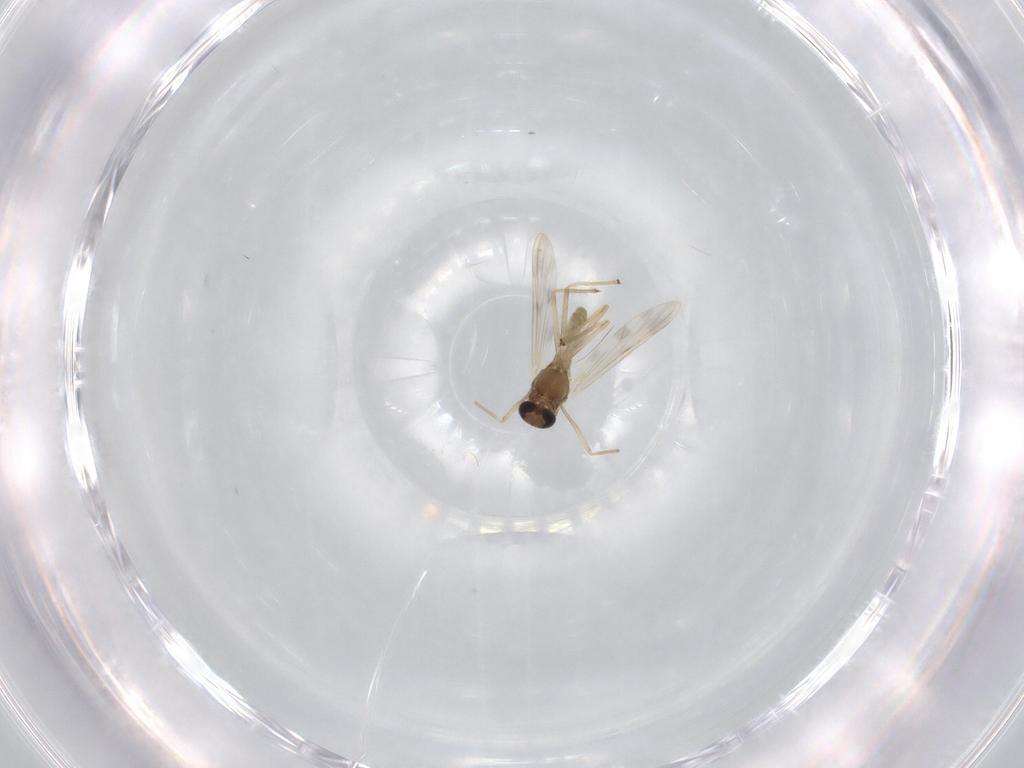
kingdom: Animalia
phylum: Arthropoda
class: Insecta
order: Diptera
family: Chironomidae
